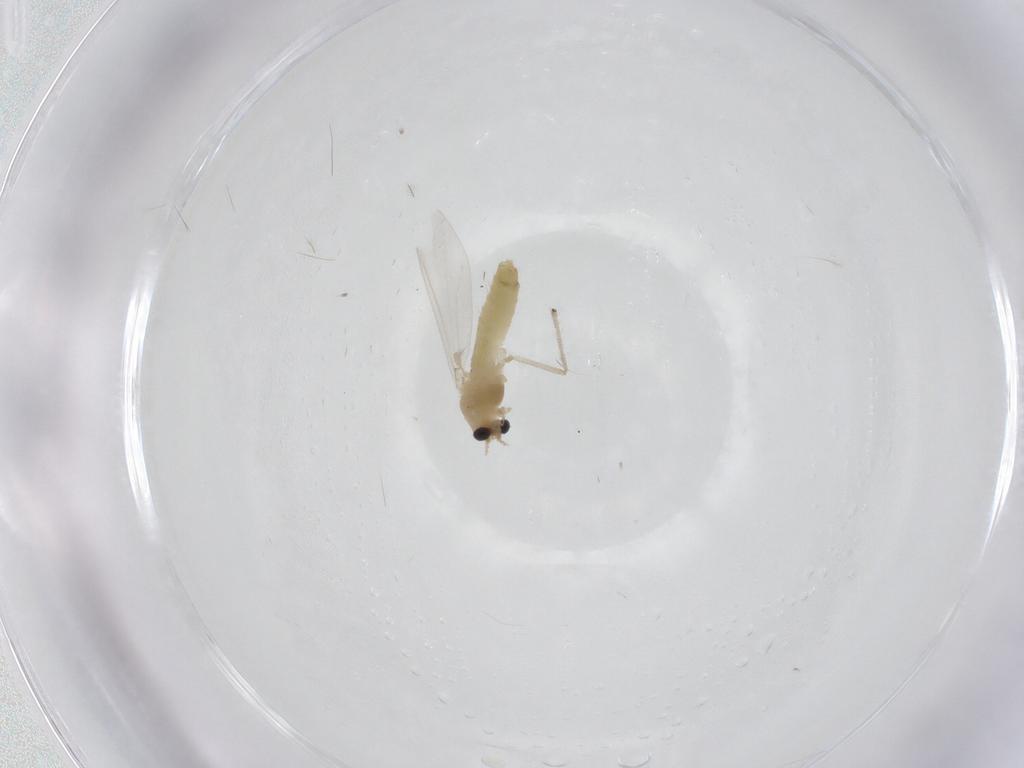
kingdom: Animalia
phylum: Arthropoda
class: Insecta
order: Diptera
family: Chironomidae
